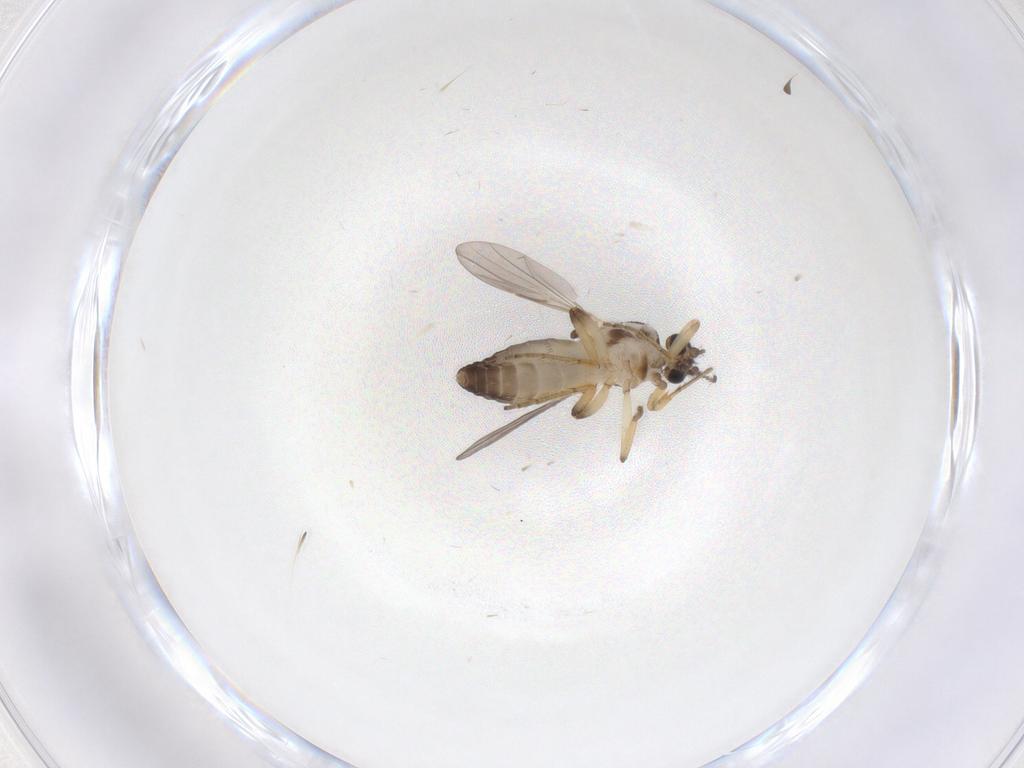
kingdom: Animalia
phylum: Arthropoda
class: Insecta
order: Diptera
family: Ceratopogonidae
